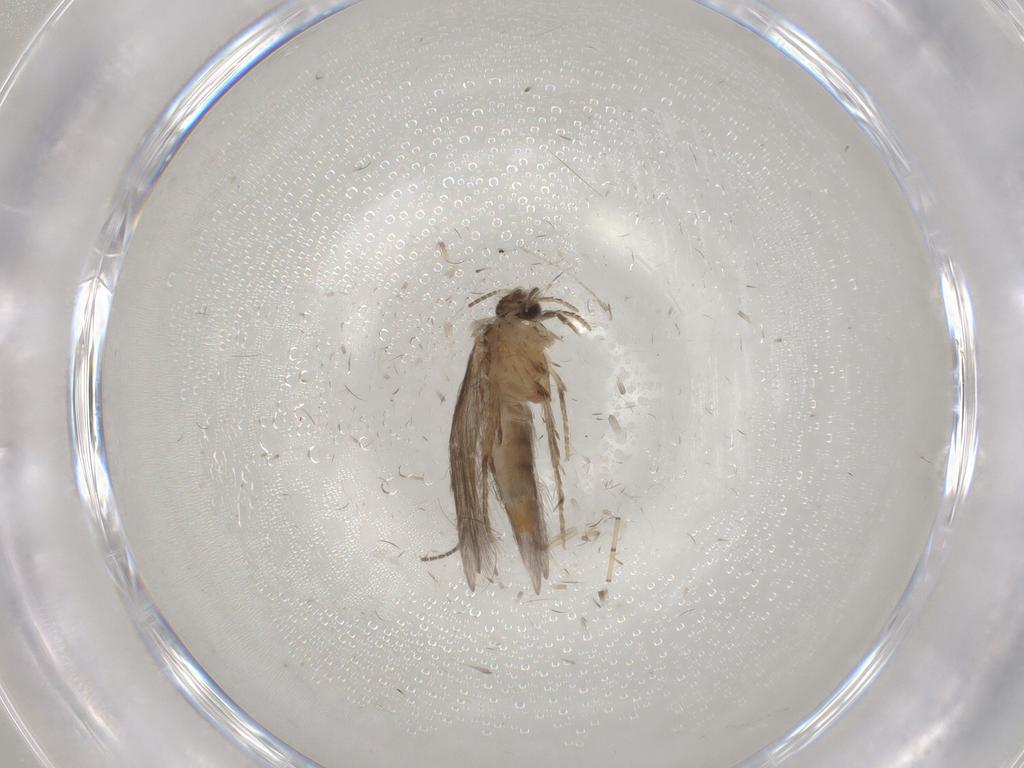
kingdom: Animalia
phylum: Arthropoda
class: Insecta
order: Trichoptera
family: Hydroptilidae
